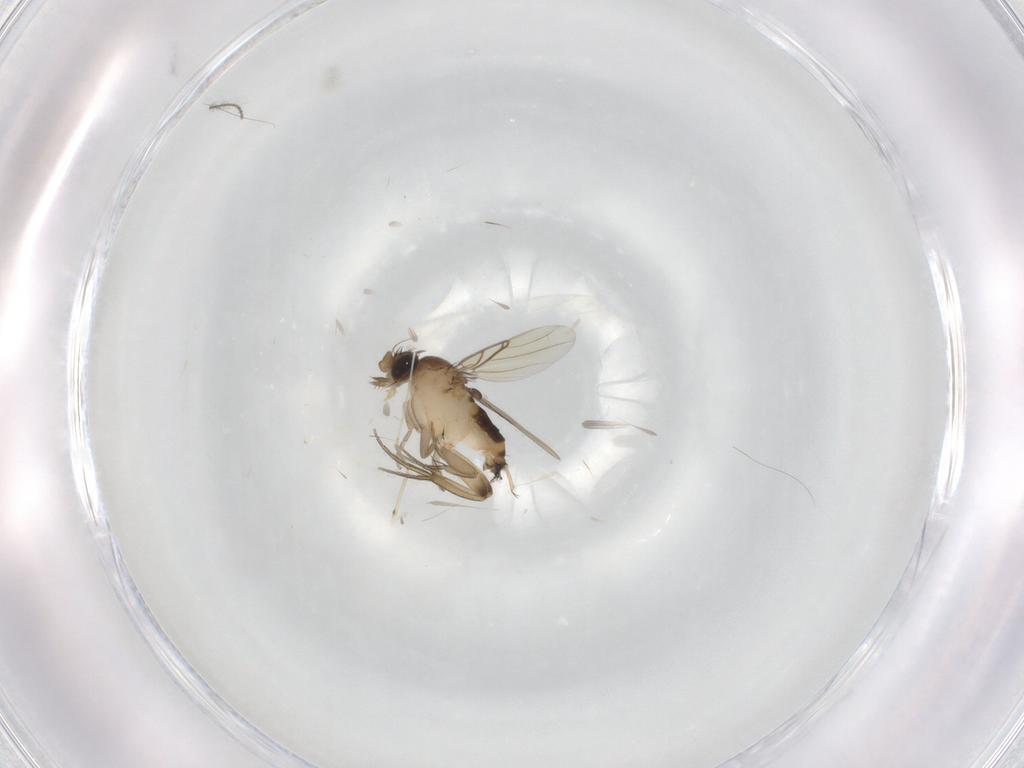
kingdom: Animalia
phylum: Arthropoda
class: Insecta
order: Diptera
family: Phoridae
